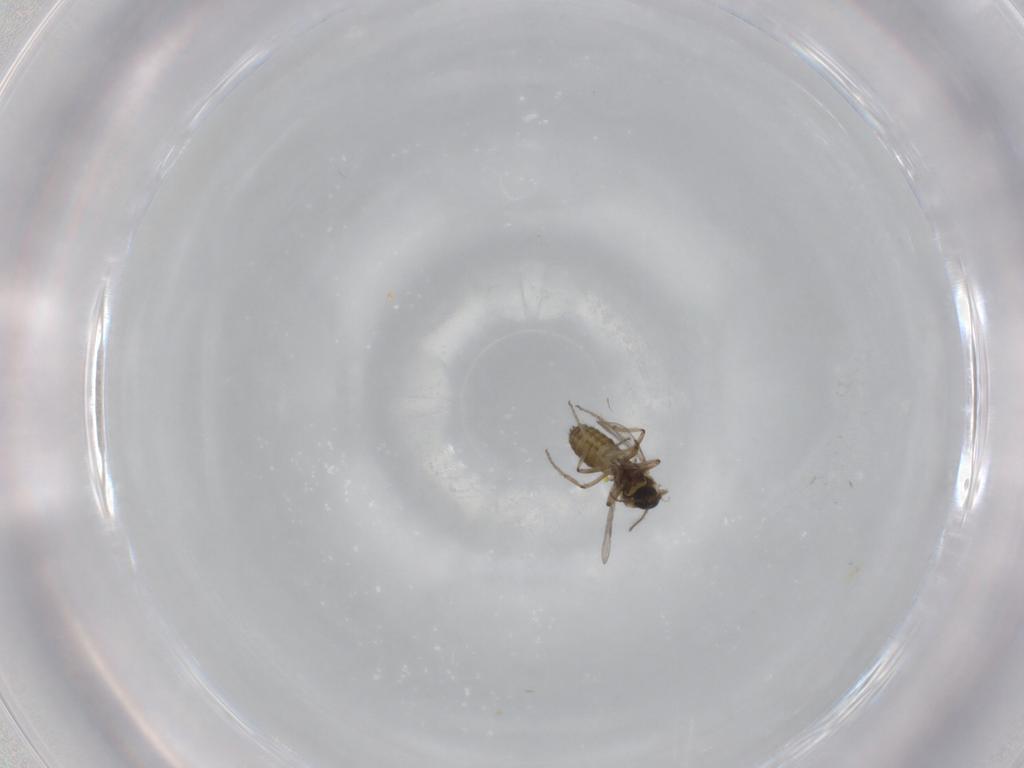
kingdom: Animalia
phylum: Arthropoda
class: Insecta
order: Diptera
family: Ceratopogonidae
